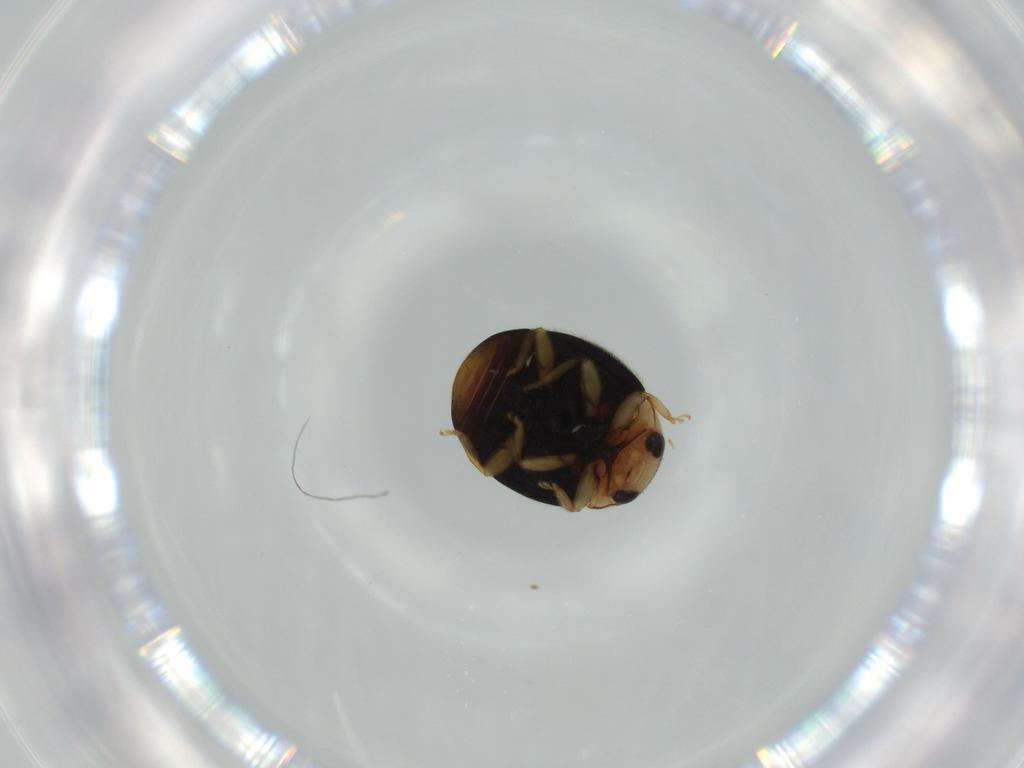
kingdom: Animalia
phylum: Arthropoda
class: Insecta
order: Coleoptera
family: Coccinellidae
